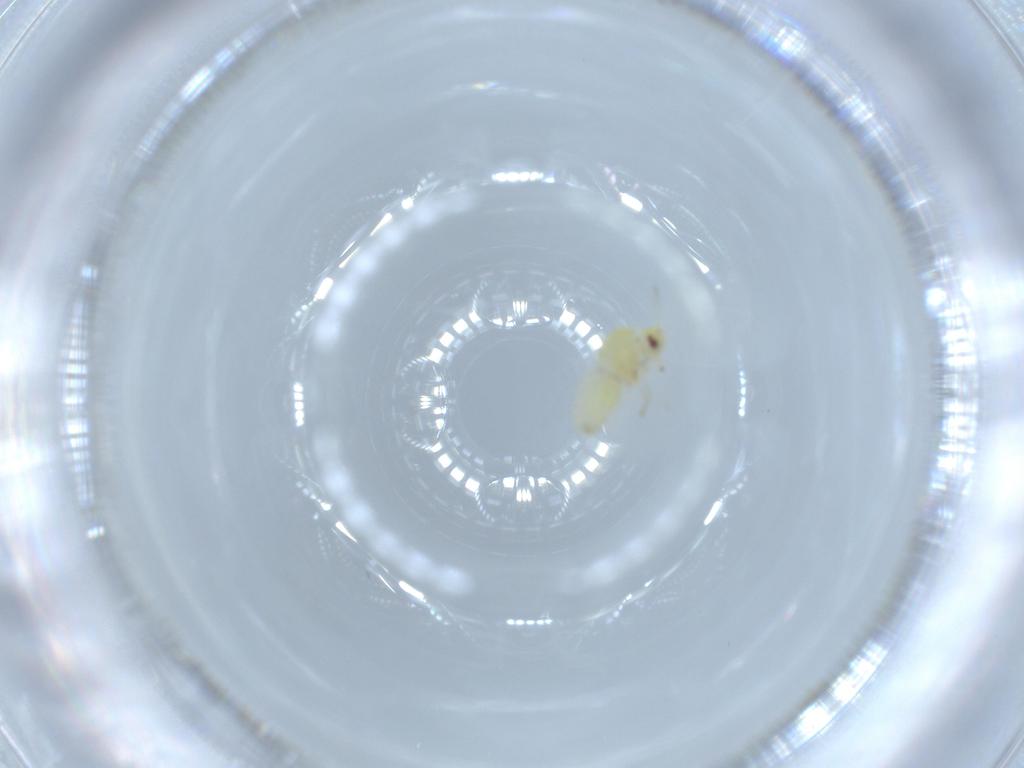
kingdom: Animalia
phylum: Arthropoda
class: Insecta
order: Hemiptera
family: Aleyrodidae
